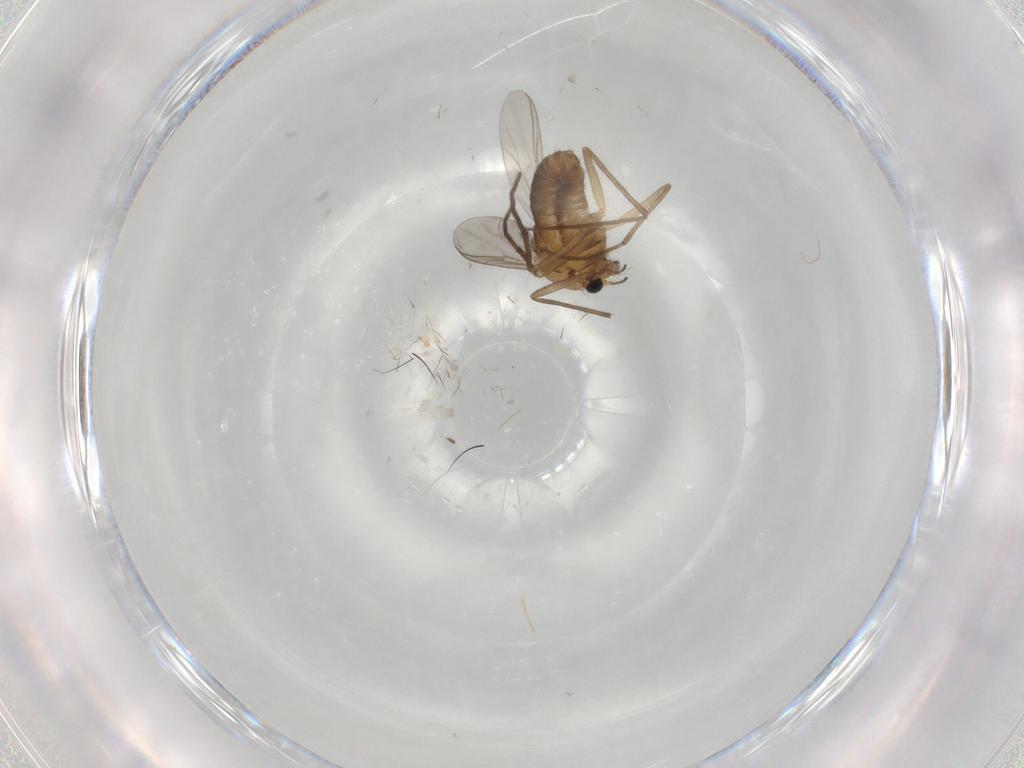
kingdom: Animalia
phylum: Arthropoda
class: Insecta
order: Diptera
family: Chironomidae
